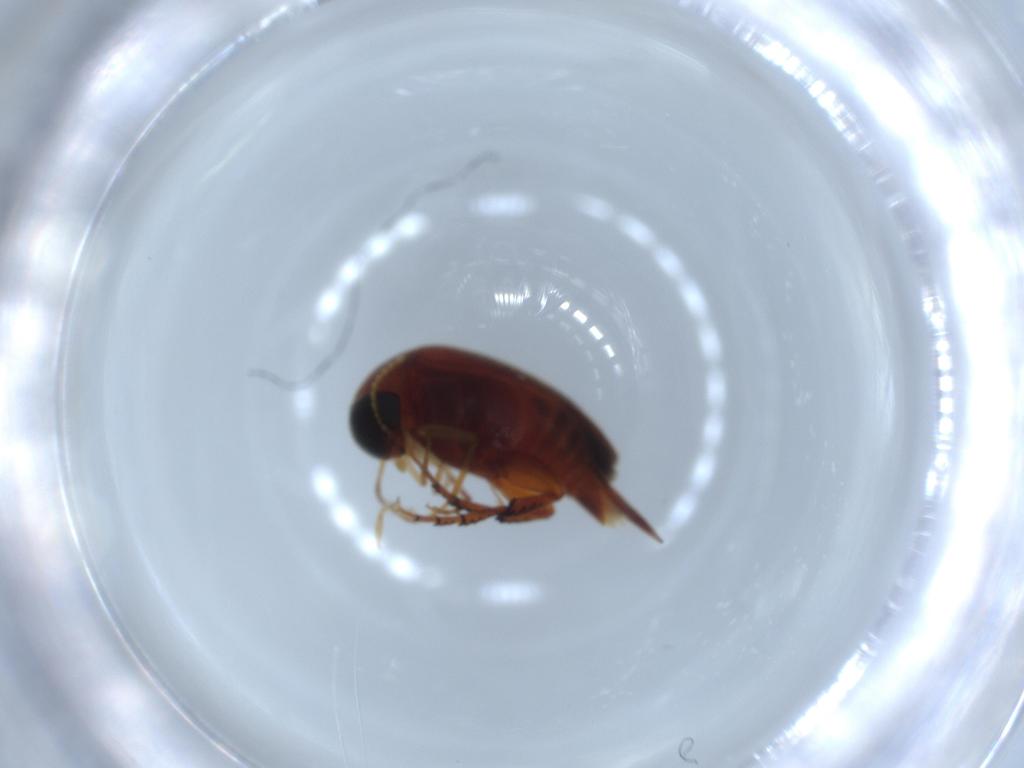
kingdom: Animalia
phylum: Arthropoda
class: Insecta
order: Coleoptera
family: Mordellidae
